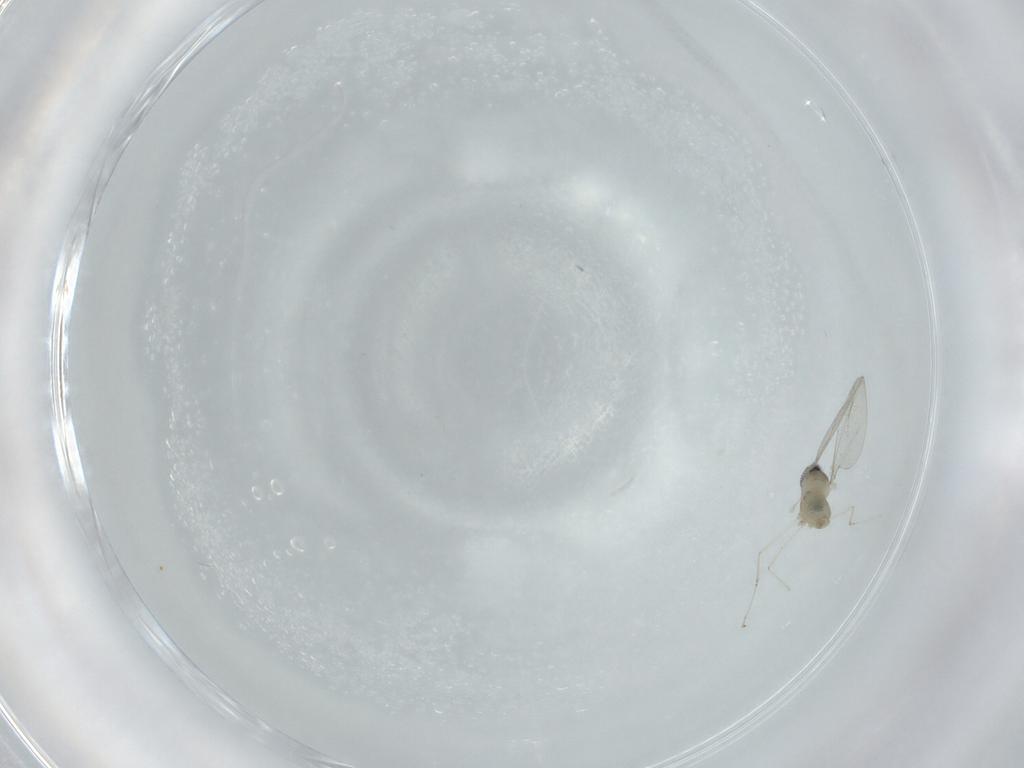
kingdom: Animalia
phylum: Arthropoda
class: Insecta
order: Diptera
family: Cecidomyiidae
